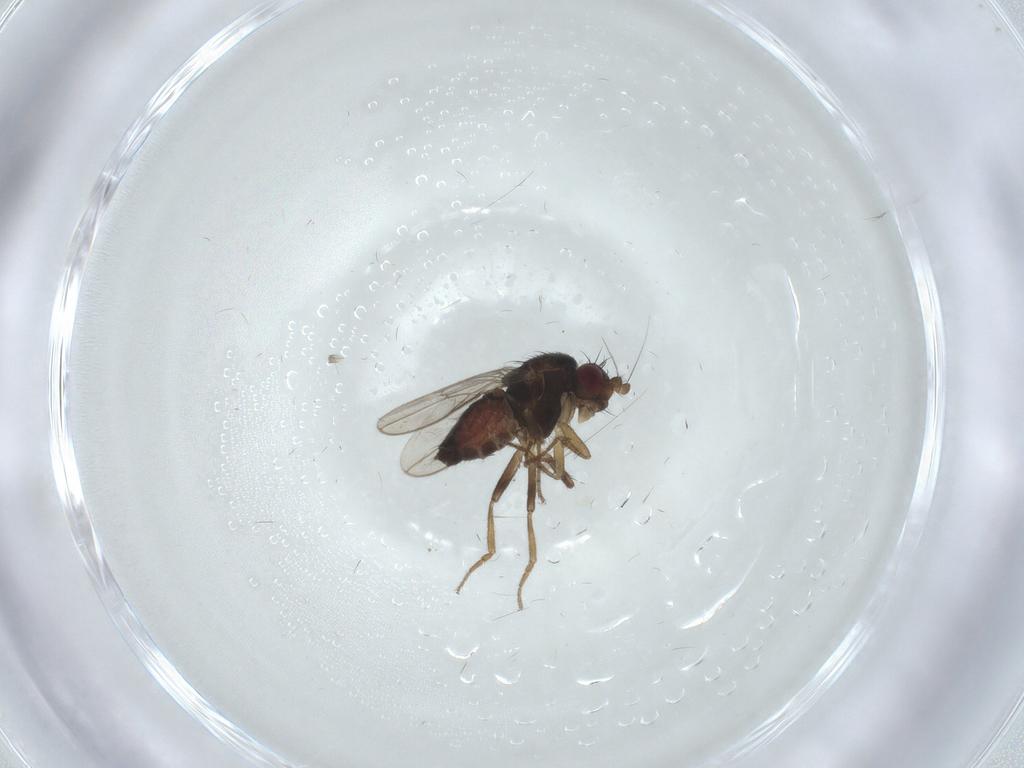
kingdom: Animalia
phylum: Arthropoda
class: Insecta
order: Diptera
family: Sphaeroceridae
